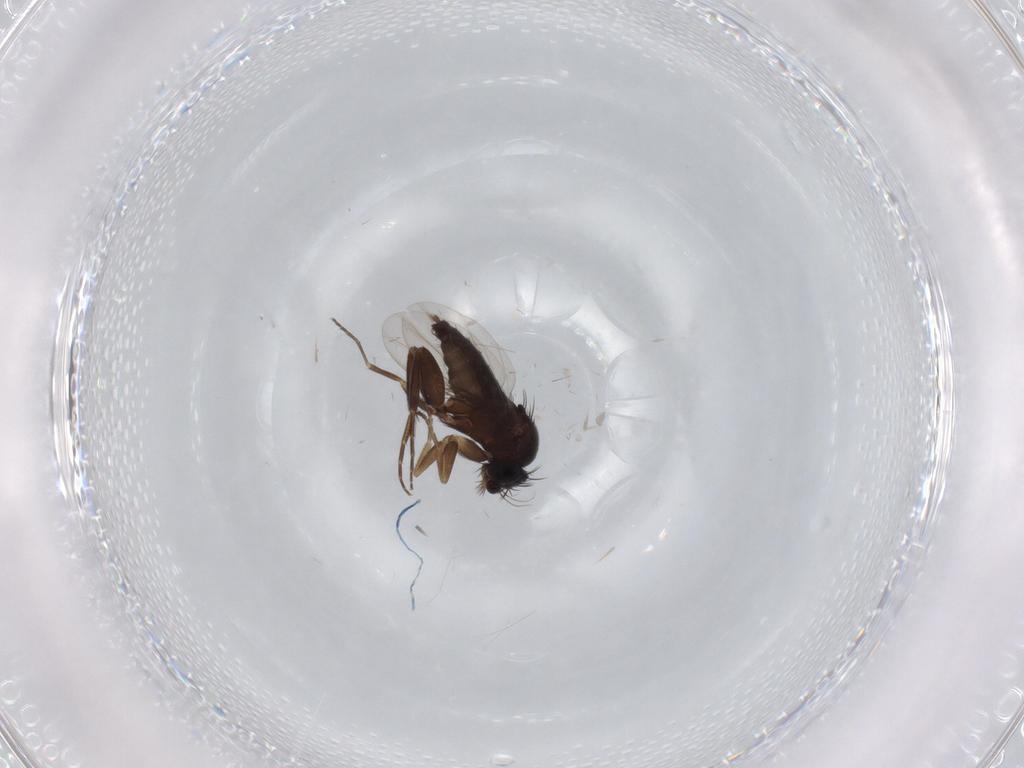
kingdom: Animalia
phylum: Arthropoda
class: Insecta
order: Diptera
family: Phoridae
